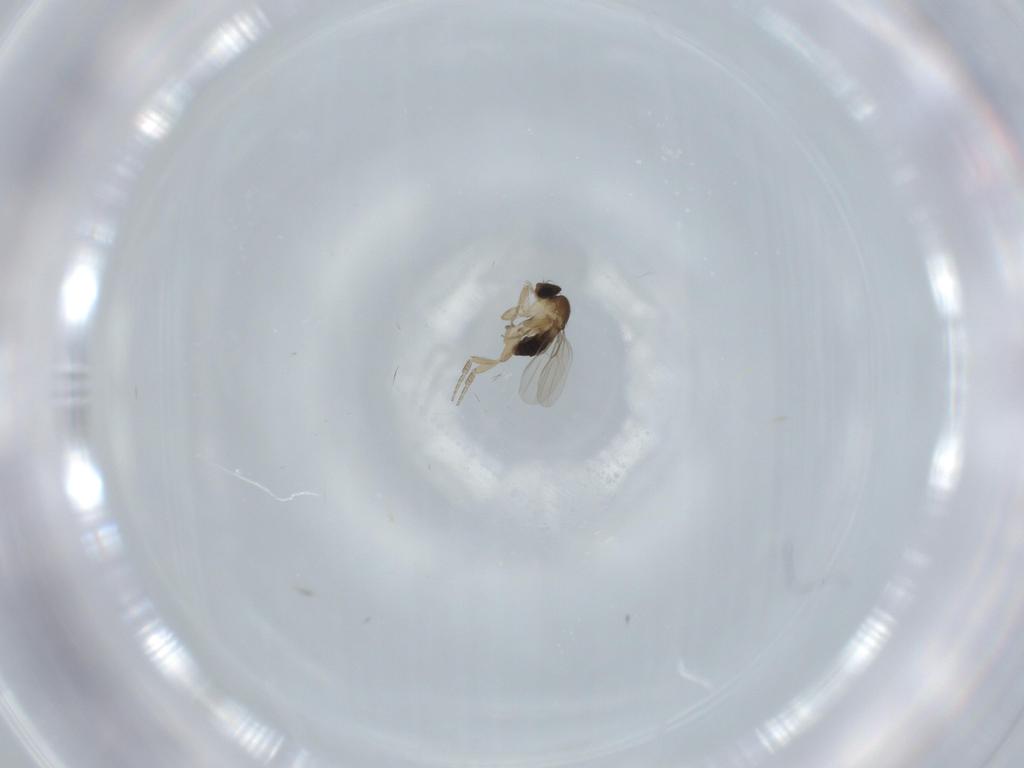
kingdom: Animalia
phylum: Arthropoda
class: Insecta
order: Diptera
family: Phoridae
